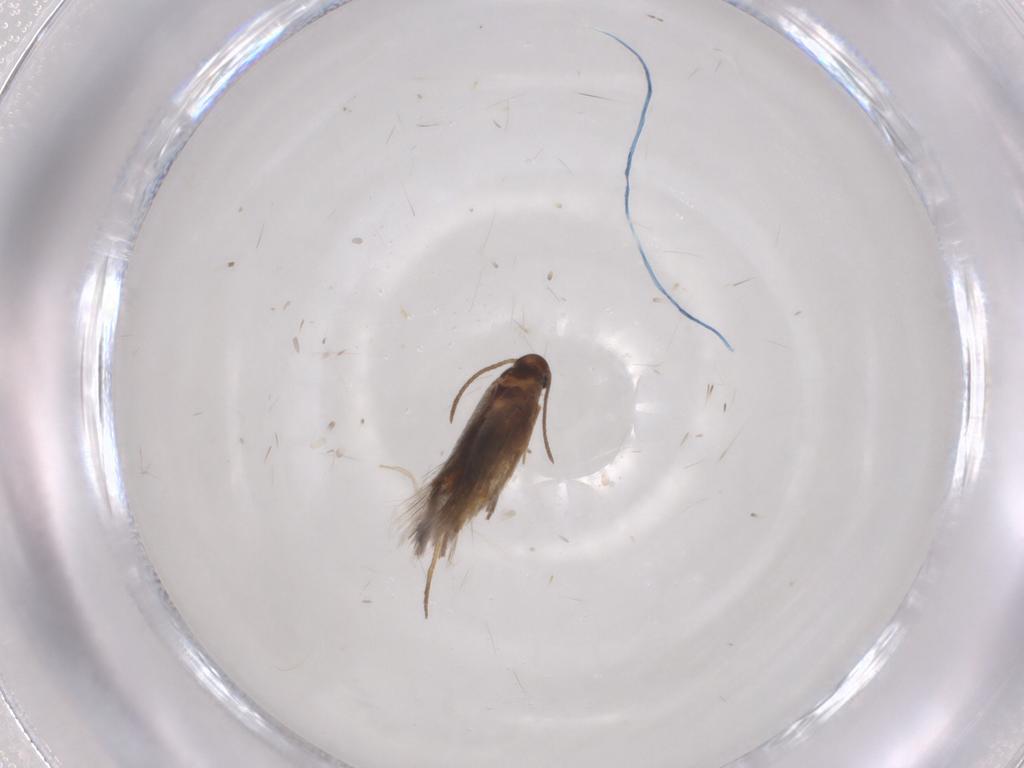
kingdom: Animalia
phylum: Arthropoda
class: Insecta
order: Lepidoptera
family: Heliozelidae
